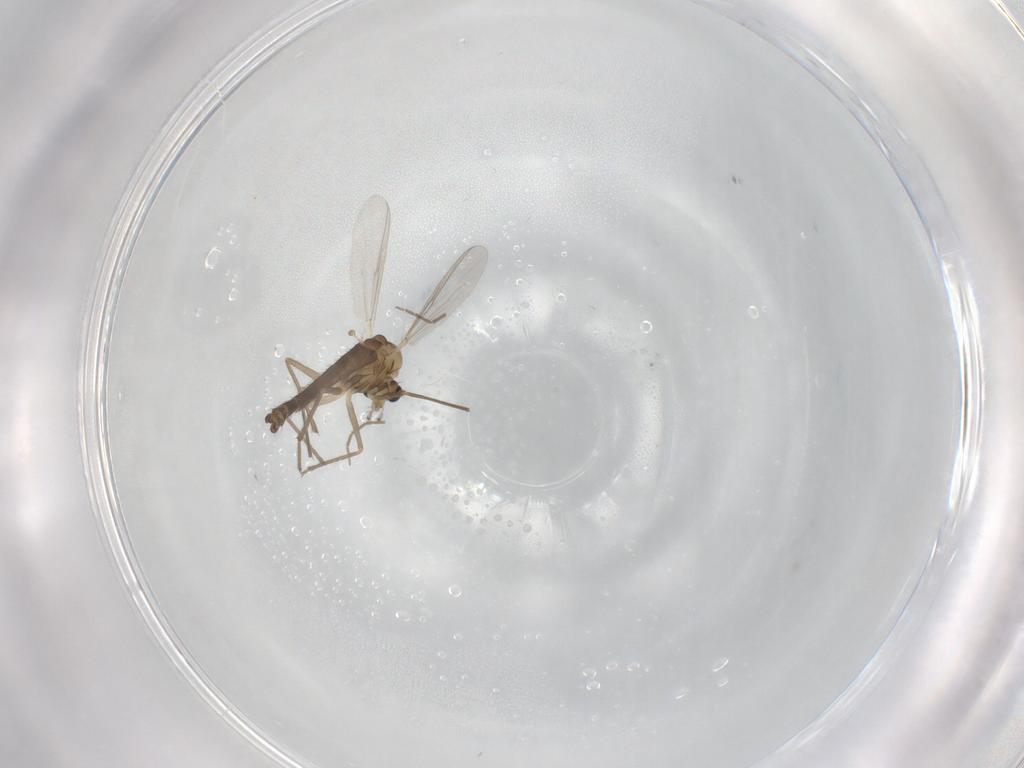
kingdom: Animalia
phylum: Arthropoda
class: Insecta
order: Diptera
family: Chironomidae
